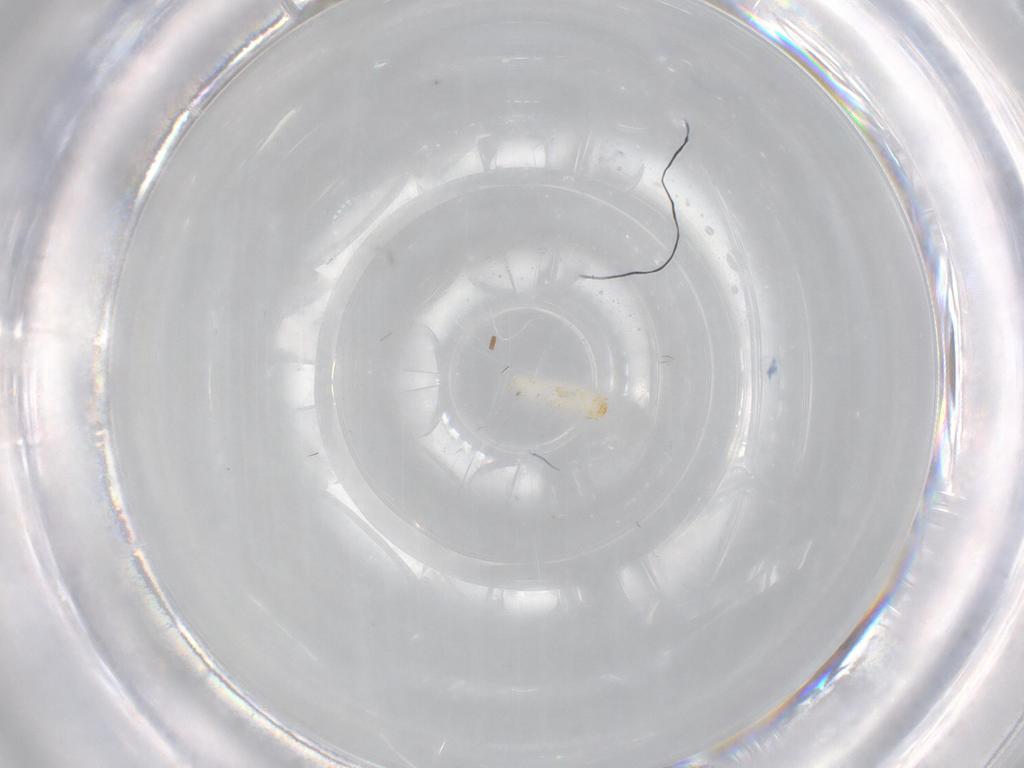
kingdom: Animalia
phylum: Arthropoda
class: Insecta
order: Coleoptera
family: Monotomidae
